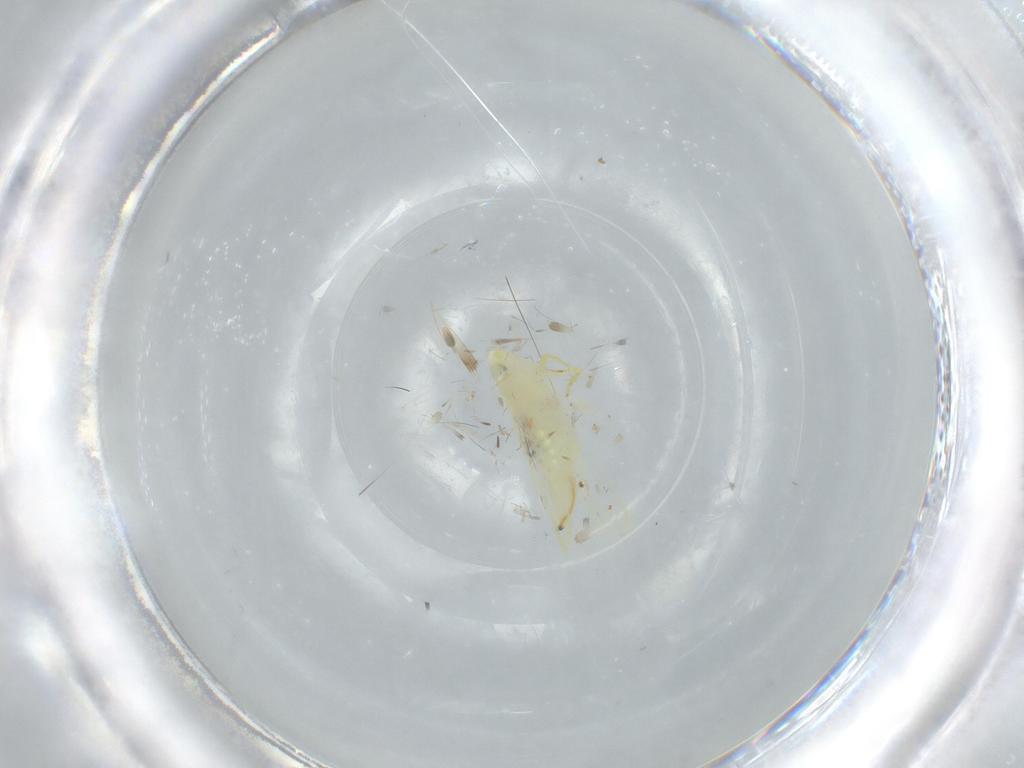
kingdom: Animalia
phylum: Arthropoda
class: Insecta
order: Hemiptera
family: Cicadellidae
